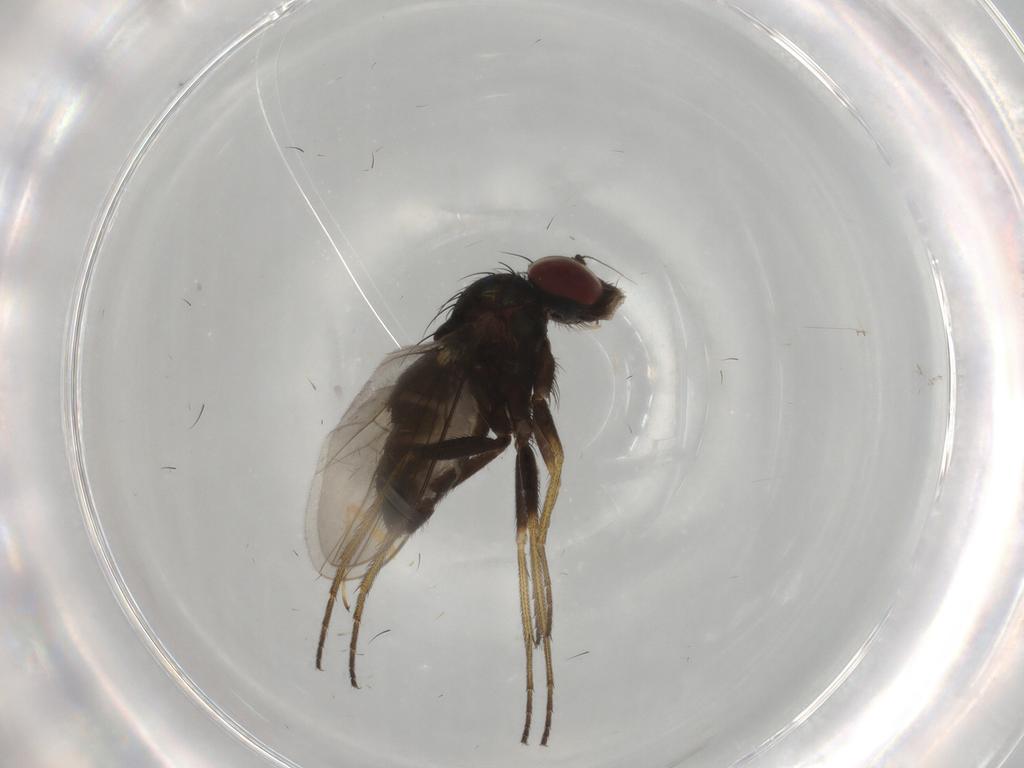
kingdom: Animalia
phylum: Arthropoda
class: Insecta
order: Diptera
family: Dolichopodidae
